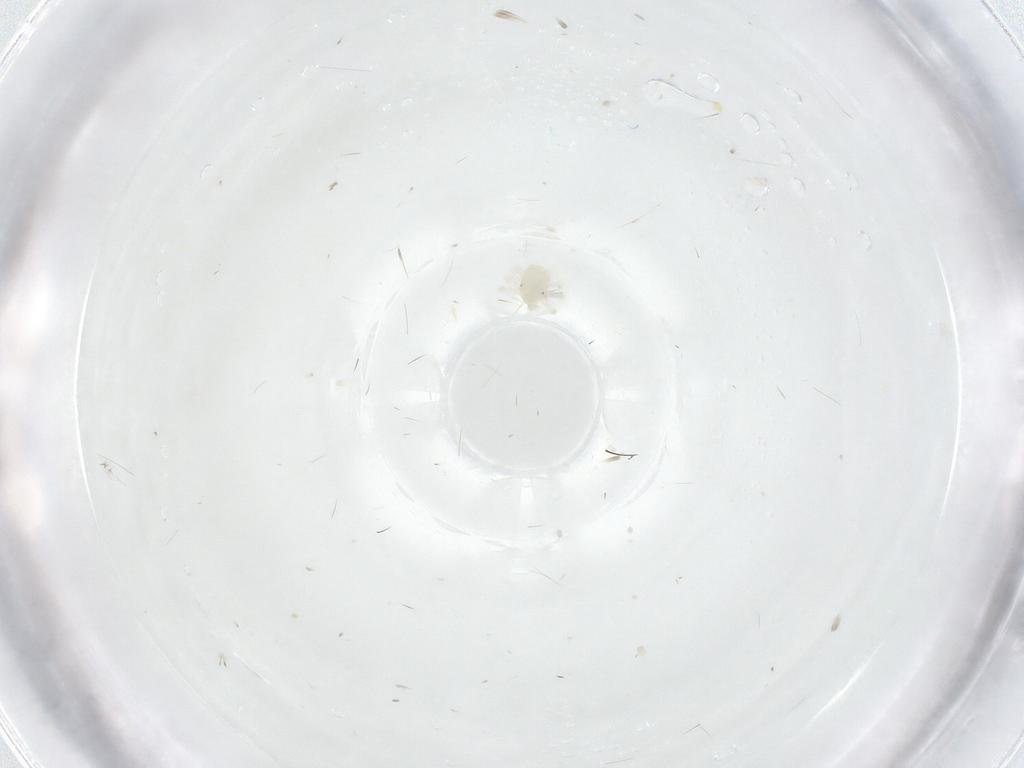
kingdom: Animalia
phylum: Arthropoda
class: Arachnida
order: Trombidiformes
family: Anystidae
